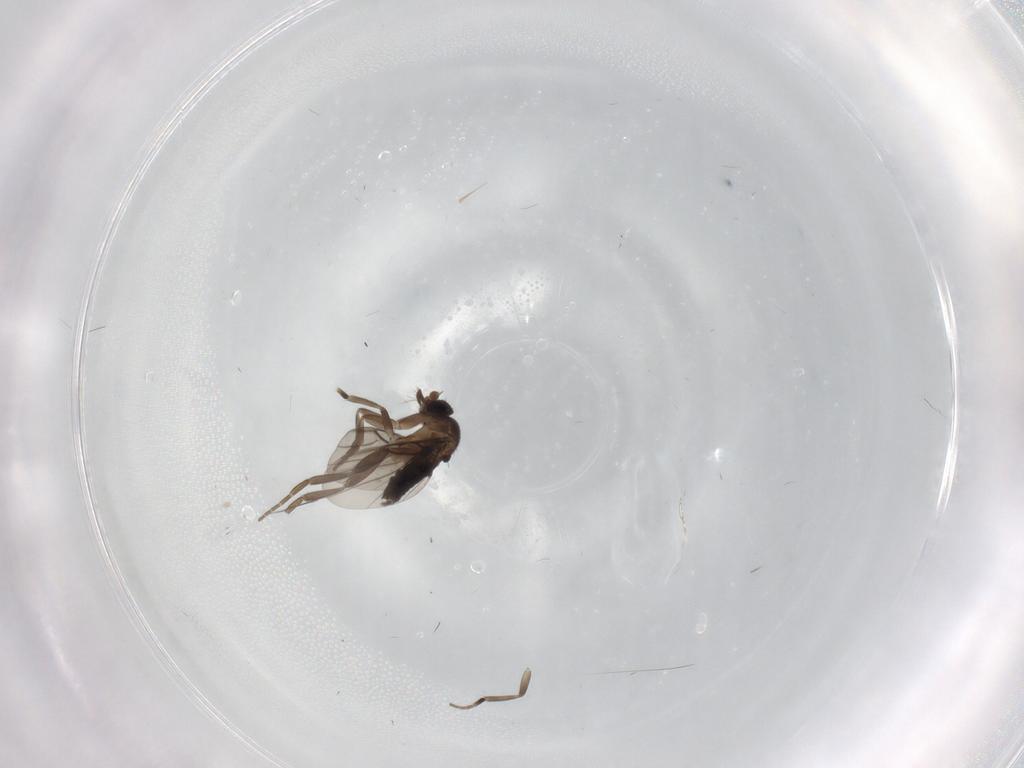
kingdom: Animalia
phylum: Arthropoda
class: Insecta
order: Diptera
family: Phoridae
